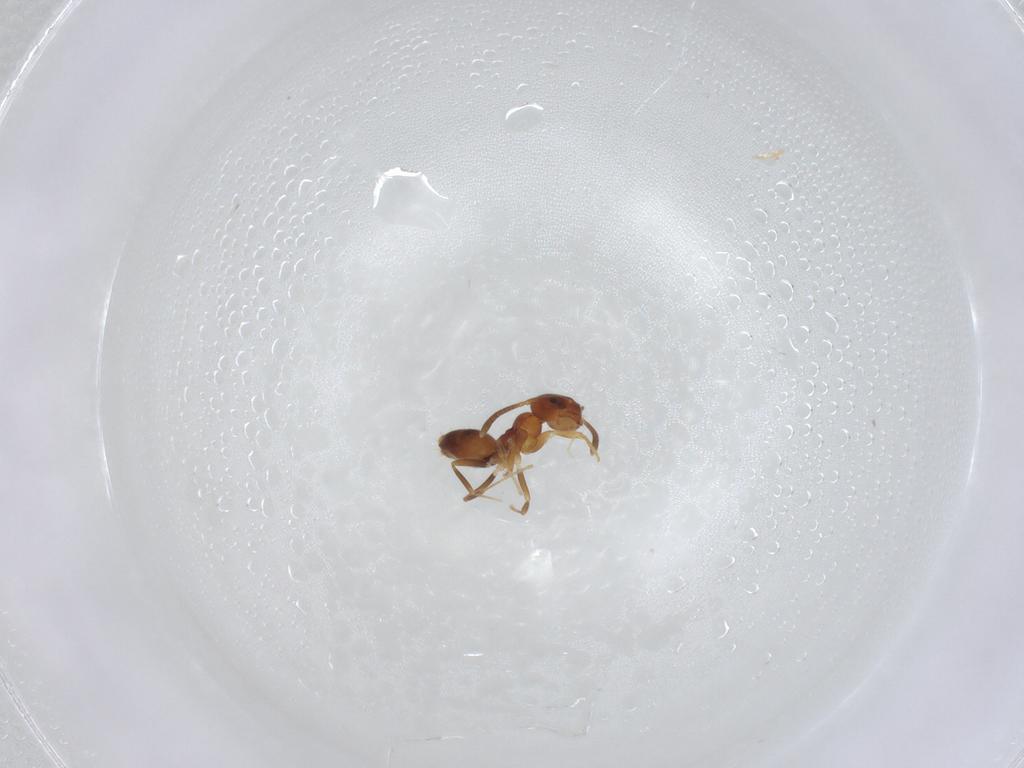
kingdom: Animalia
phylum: Arthropoda
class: Insecta
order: Hymenoptera
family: Formicidae
